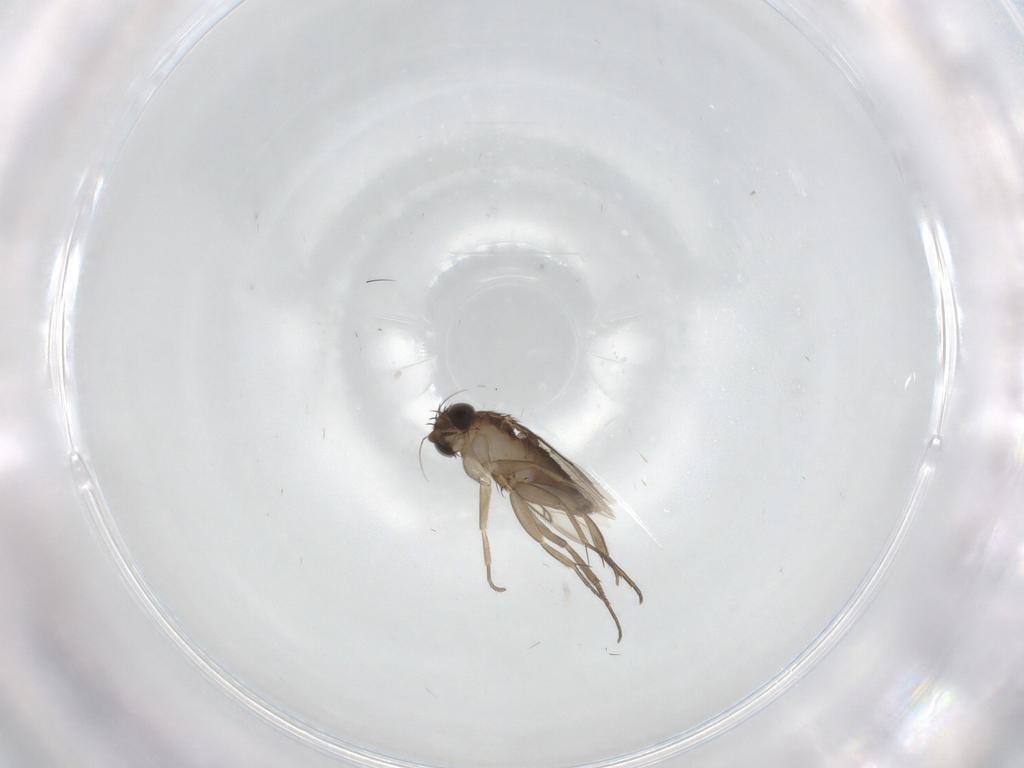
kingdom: Animalia
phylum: Arthropoda
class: Insecta
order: Diptera
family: Phoridae
